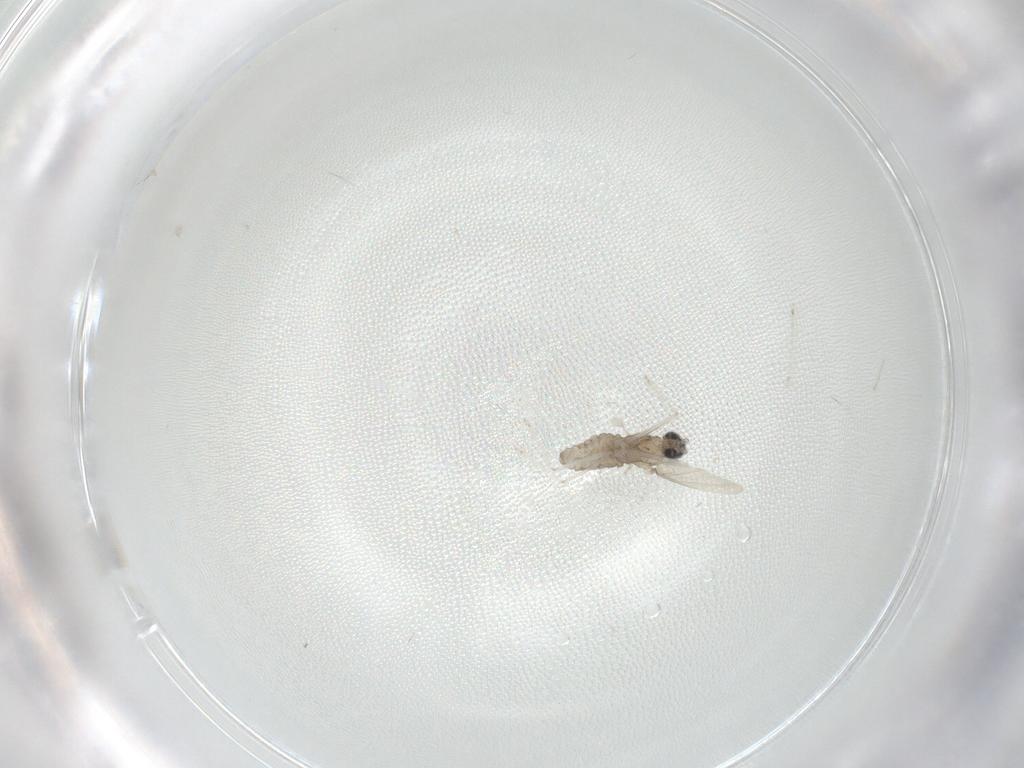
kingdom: Animalia
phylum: Arthropoda
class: Insecta
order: Diptera
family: Cecidomyiidae
